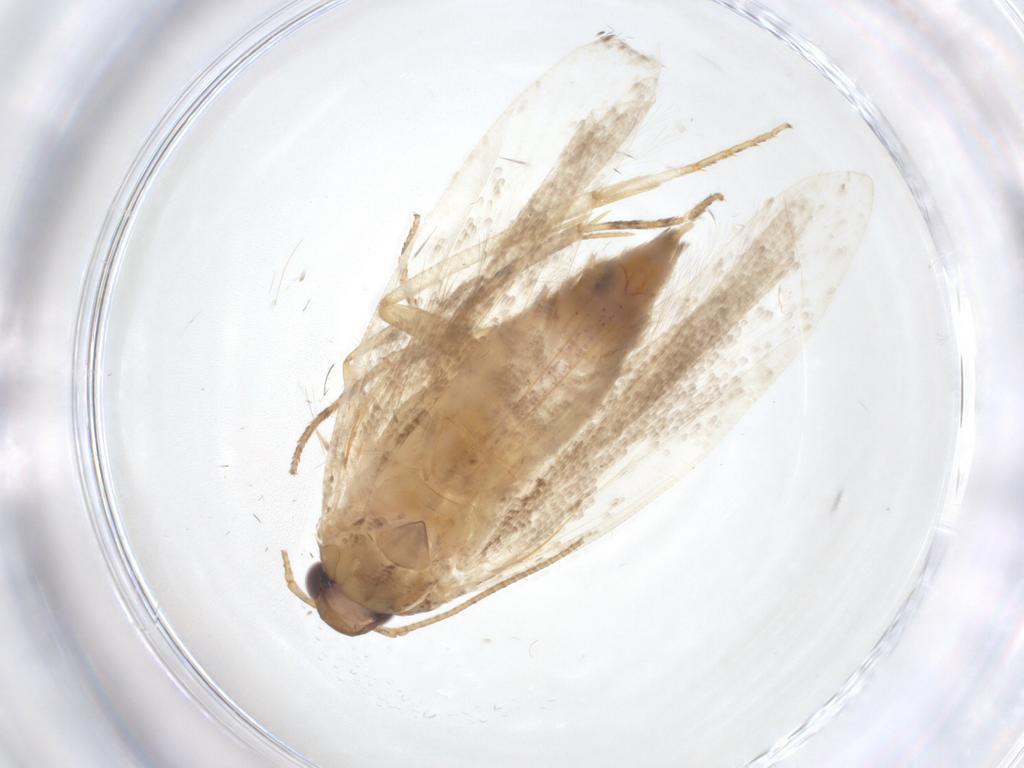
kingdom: Animalia
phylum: Arthropoda
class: Insecta
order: Lepidoptera
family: Gelechiidae
